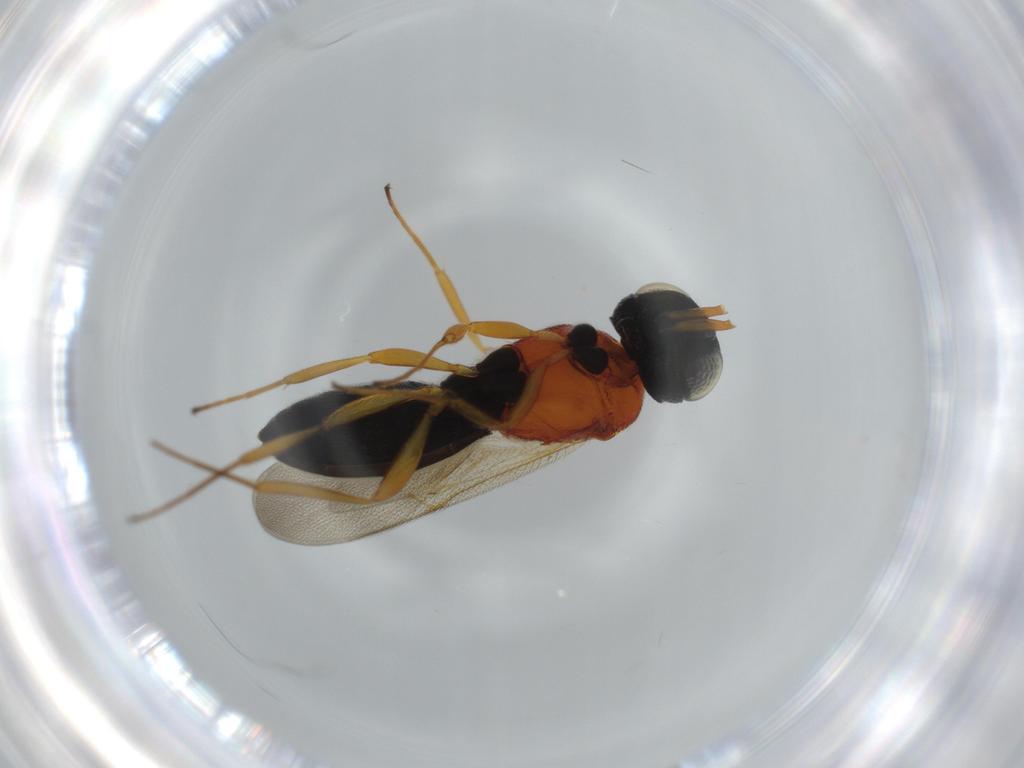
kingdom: Animalia
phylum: Arthropoda
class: Insecta
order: Hymenoptera
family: Scelionidae
